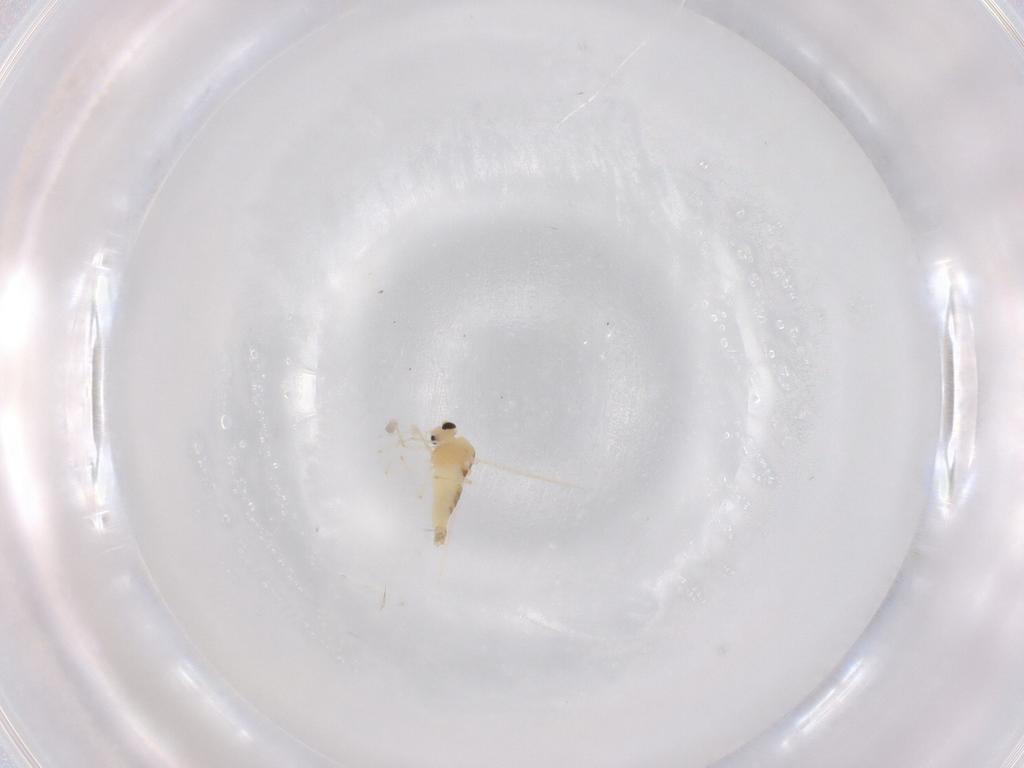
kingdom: Animalia
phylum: Arthropoda
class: Insecta
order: Diptera
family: Chironomidae
